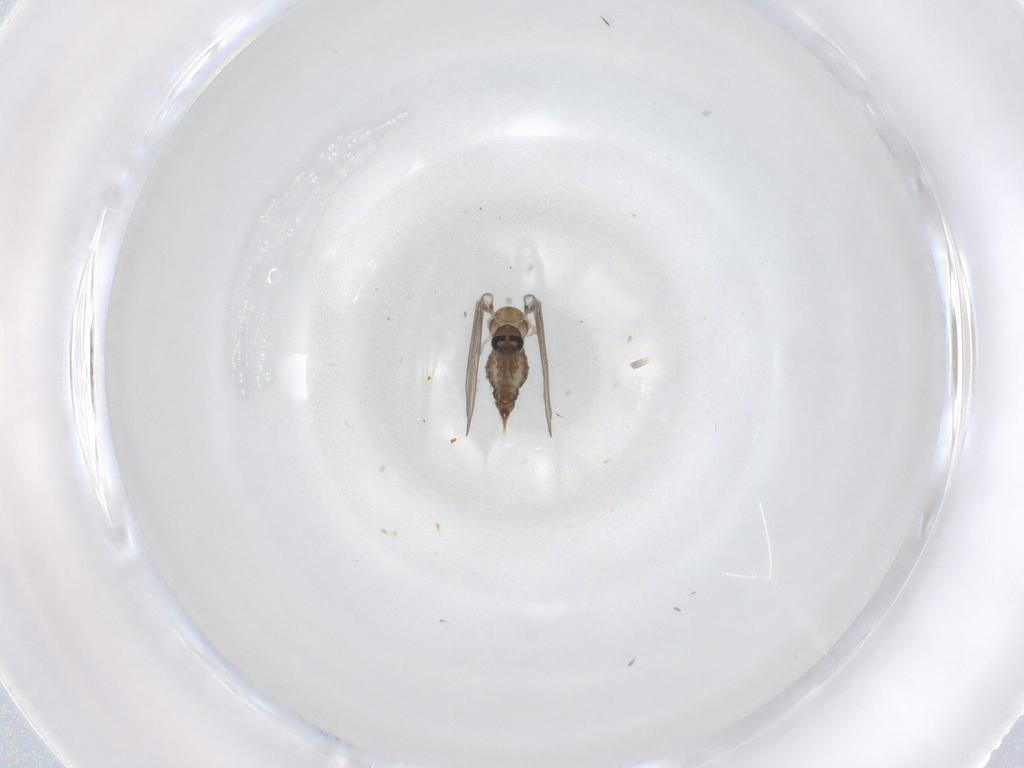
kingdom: Animalia
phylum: Arthropoda
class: Insecta
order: Diptera
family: Psychodidae
